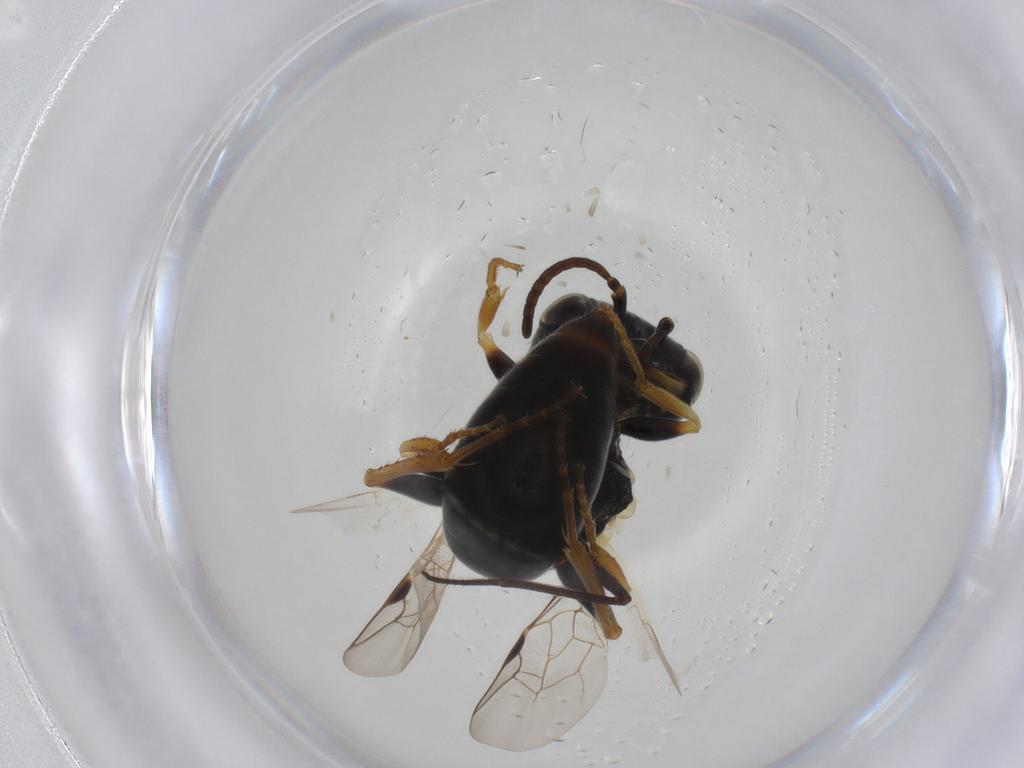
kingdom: Animalia
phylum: Arthropoda
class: Insecta
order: Hymenoptera
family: Pemphredonidae
